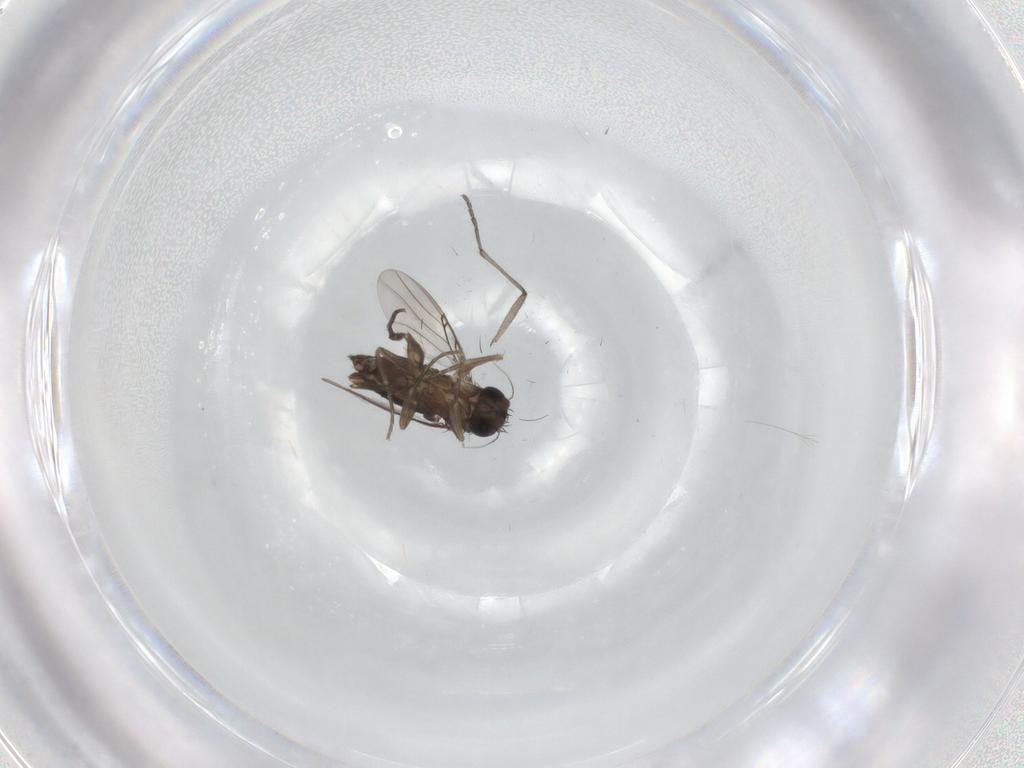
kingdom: Animalia
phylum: Arthropoda
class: Insecta
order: Diptera
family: Phoridae
